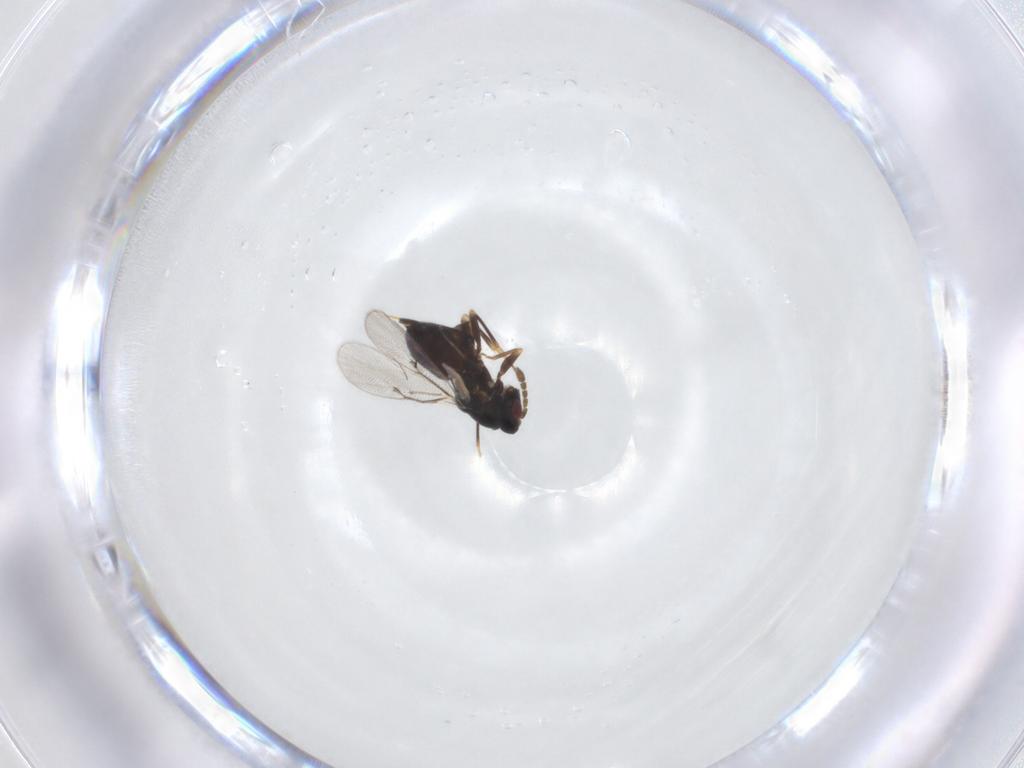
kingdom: Animalia
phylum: Arthropoda
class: Insecta
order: Hymenoptera
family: Eulophidae
